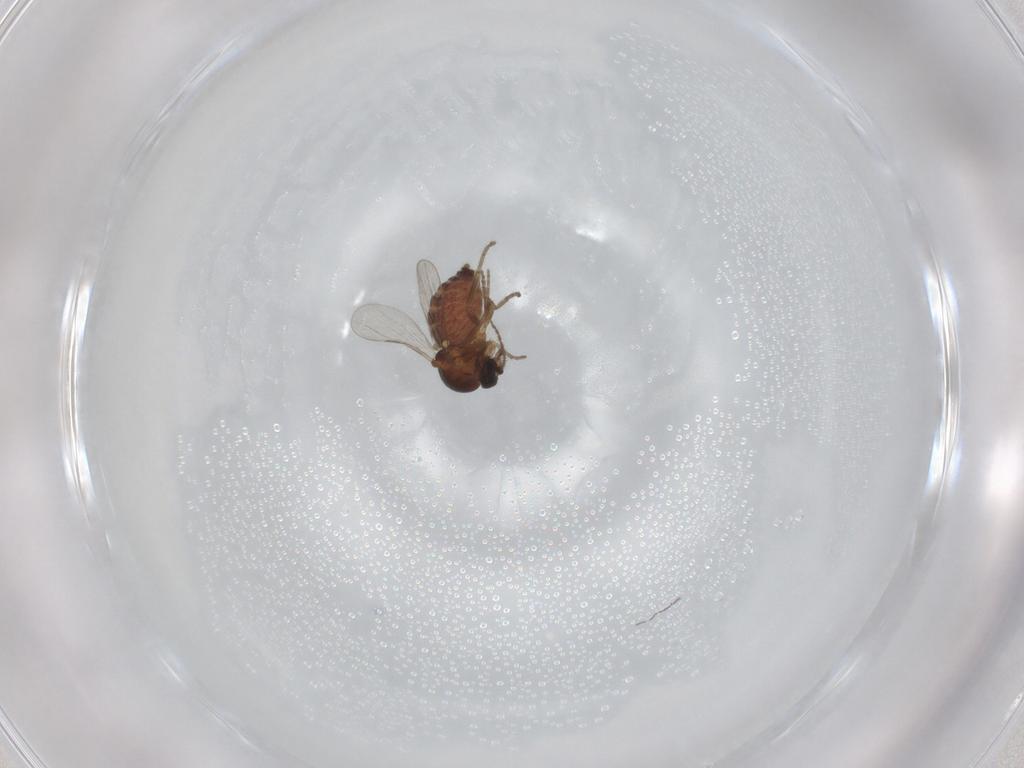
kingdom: Animalia
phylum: Arthropoda
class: Insecta
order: Diptera
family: Ceratopogonidae
